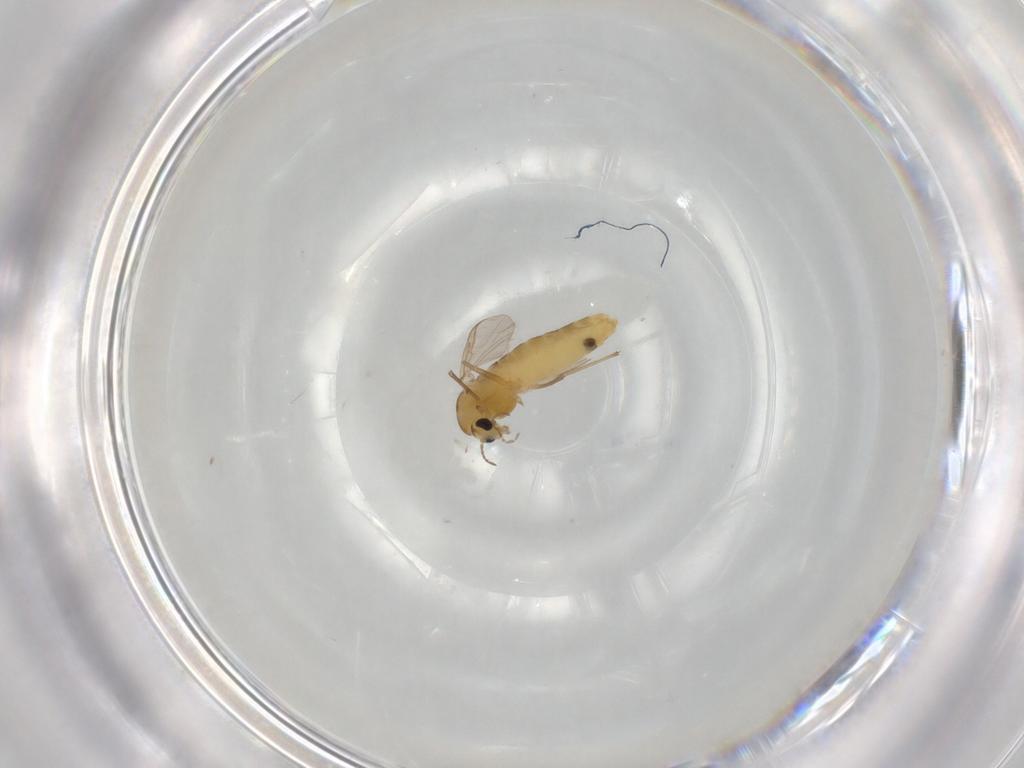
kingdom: Animalia
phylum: Arthropoda
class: Insecta
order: Diptera
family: Chironomidae
